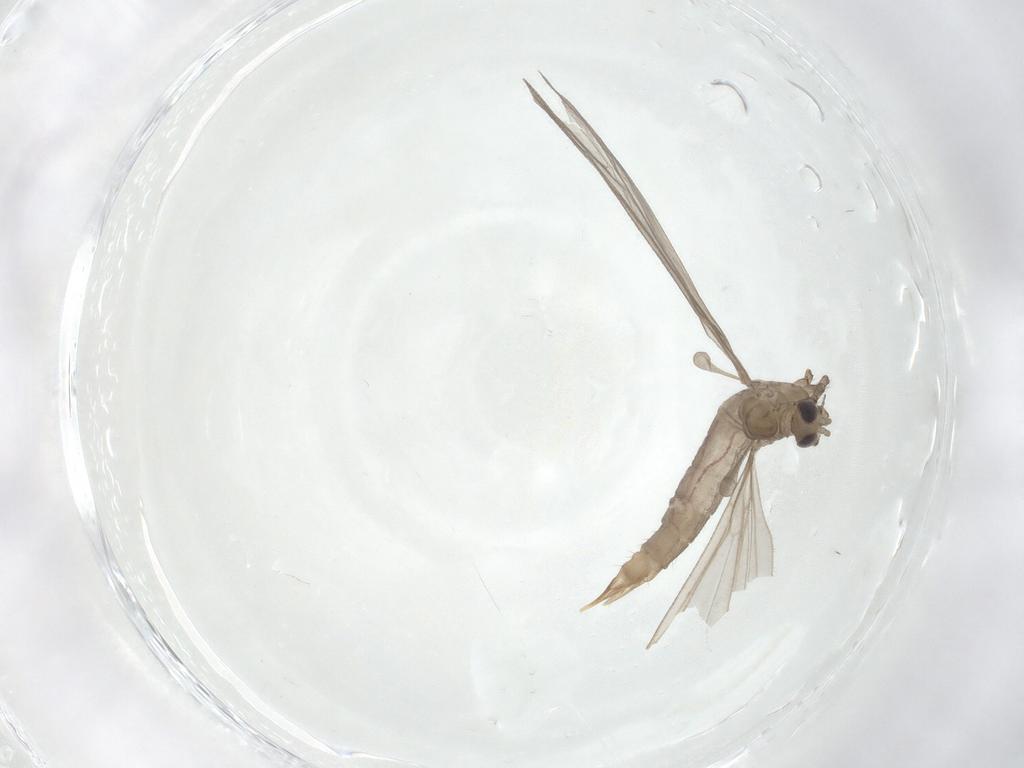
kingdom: Animalia
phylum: Arthropoda
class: Insecta
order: Diptera
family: Limoniidae
